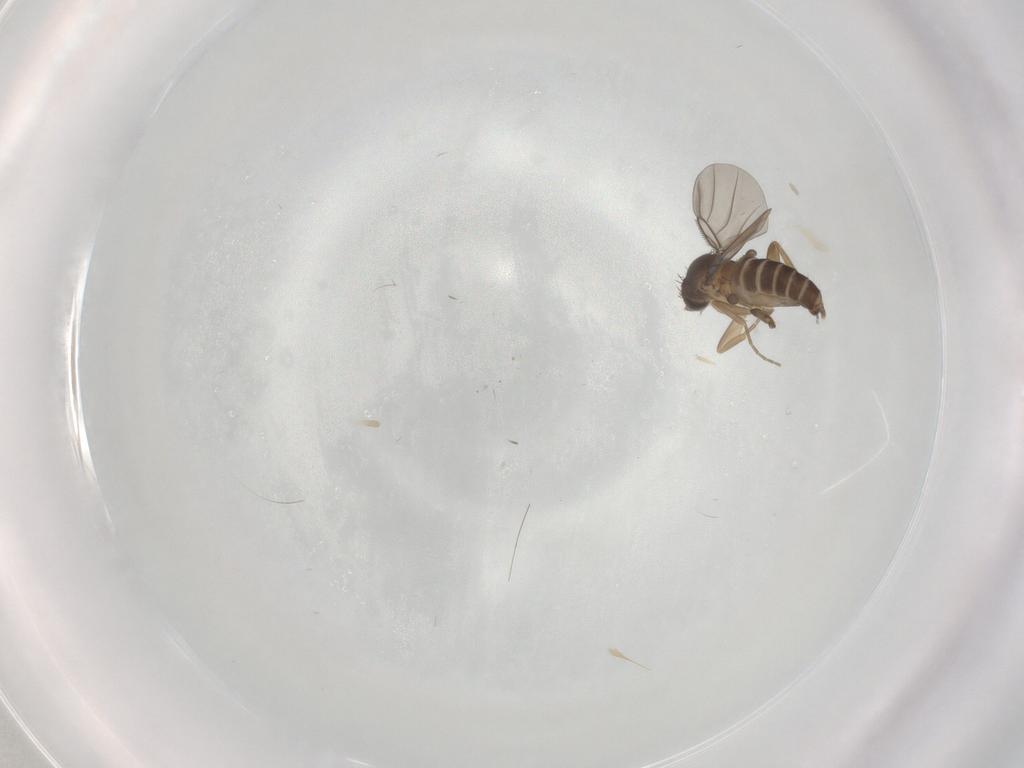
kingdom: Animalia
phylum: Arthropoda
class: Insecta
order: Diptera
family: Cecidomyiidae
